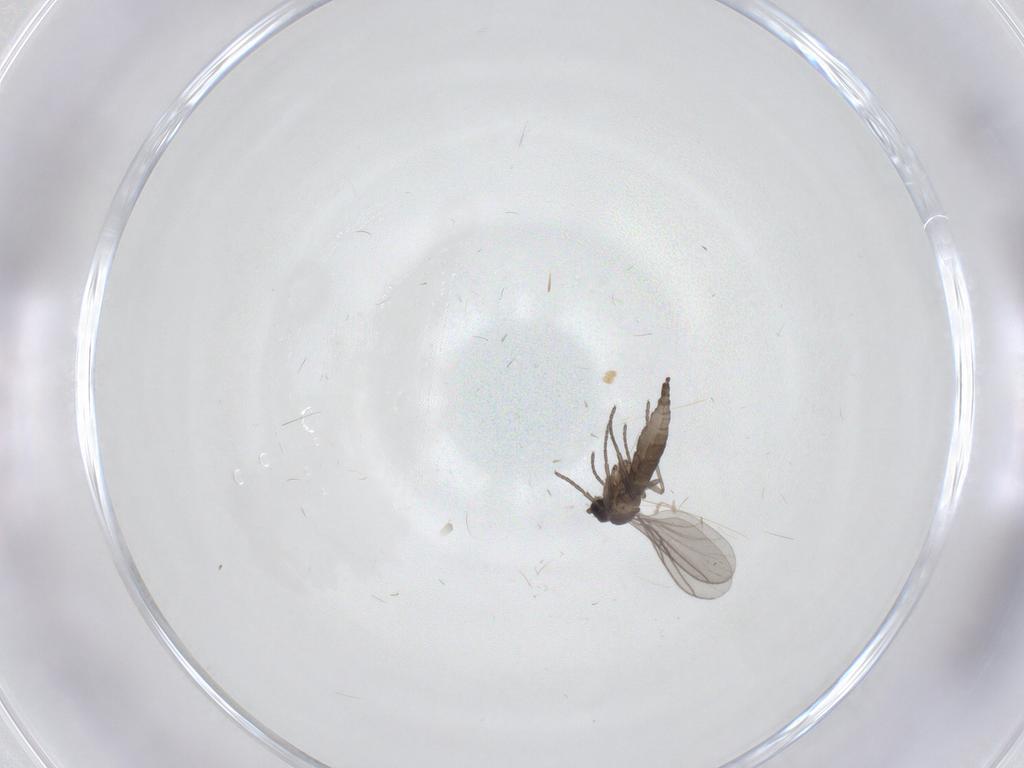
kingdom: Animalia
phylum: Arthropoda
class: Insecta
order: Diptera
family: Cecidomyiidae
